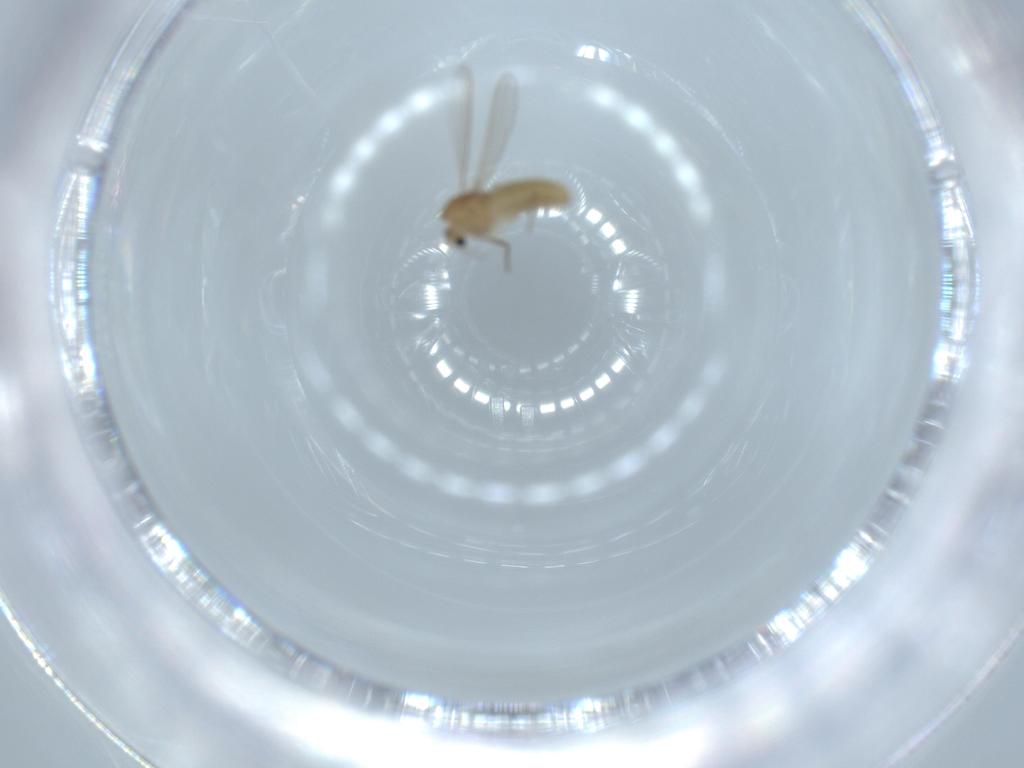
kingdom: Animalia
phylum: Arthropoda
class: Insecta
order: Diptera
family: Chironomidae
